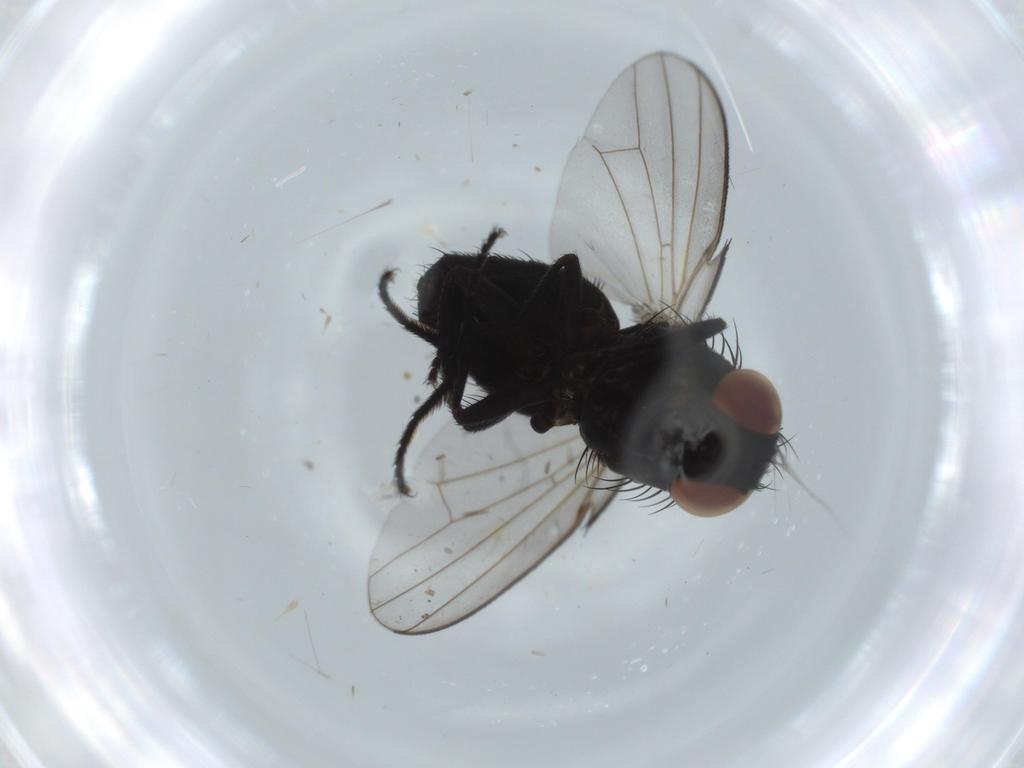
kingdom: Animalia
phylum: Arthropoda
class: Insecta
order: Diptera
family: Milichiidae
